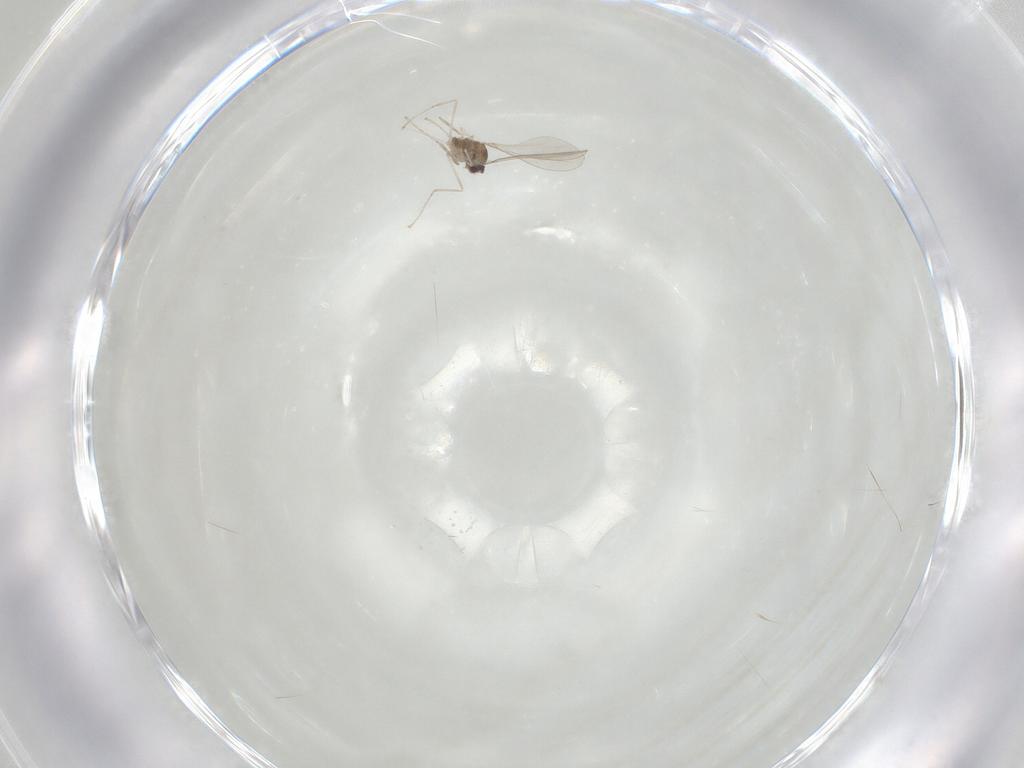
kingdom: Animalia
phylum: Arthropoda
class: Insecta
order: Diptera
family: Cecidomyiidae
